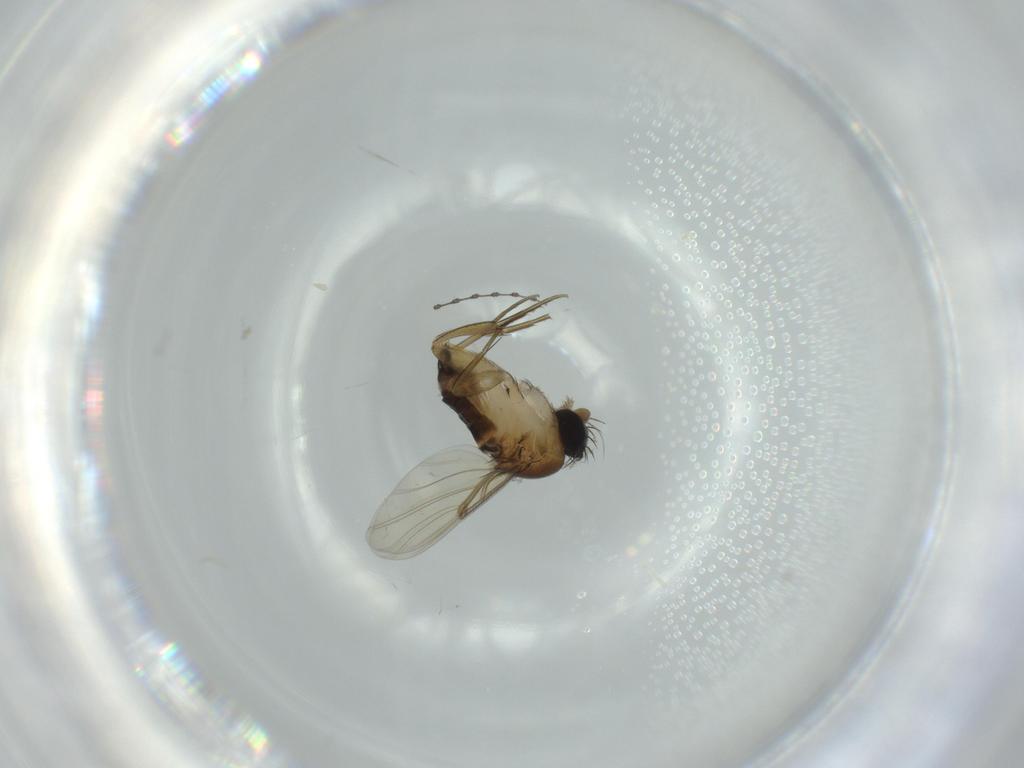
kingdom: Animalia
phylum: Arthropoda
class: Insecta
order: Diptera
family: Phoridae
